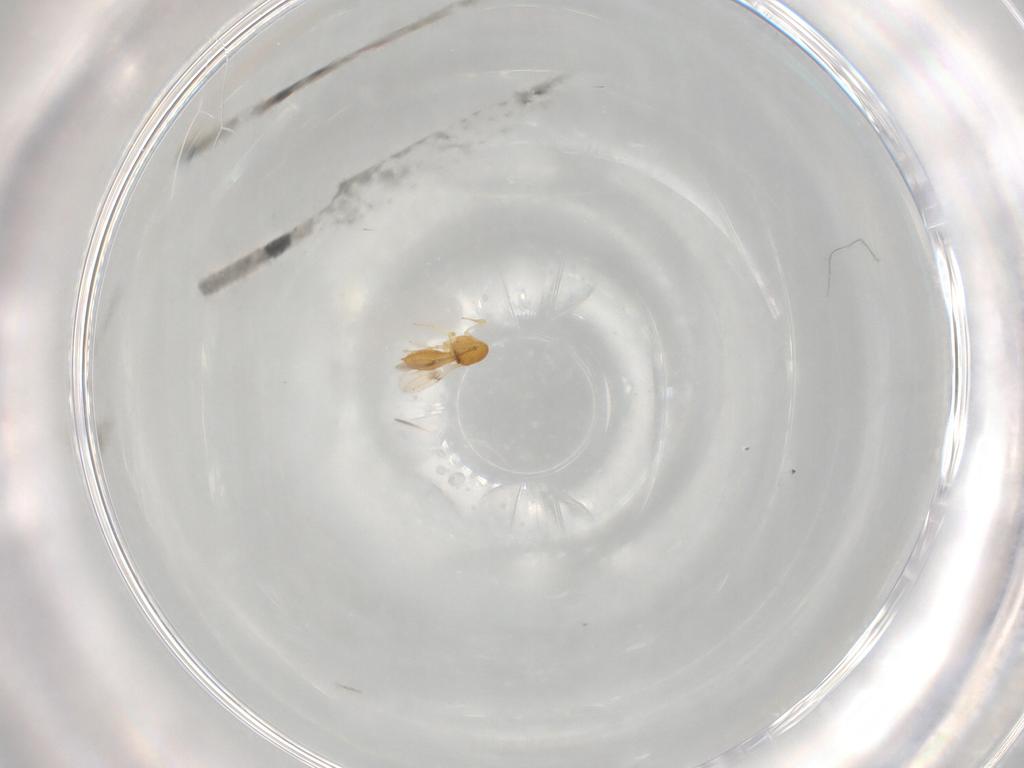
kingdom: Animalia
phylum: Arthropoda
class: Insecta
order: Hymenoptera
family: Scelionidae
